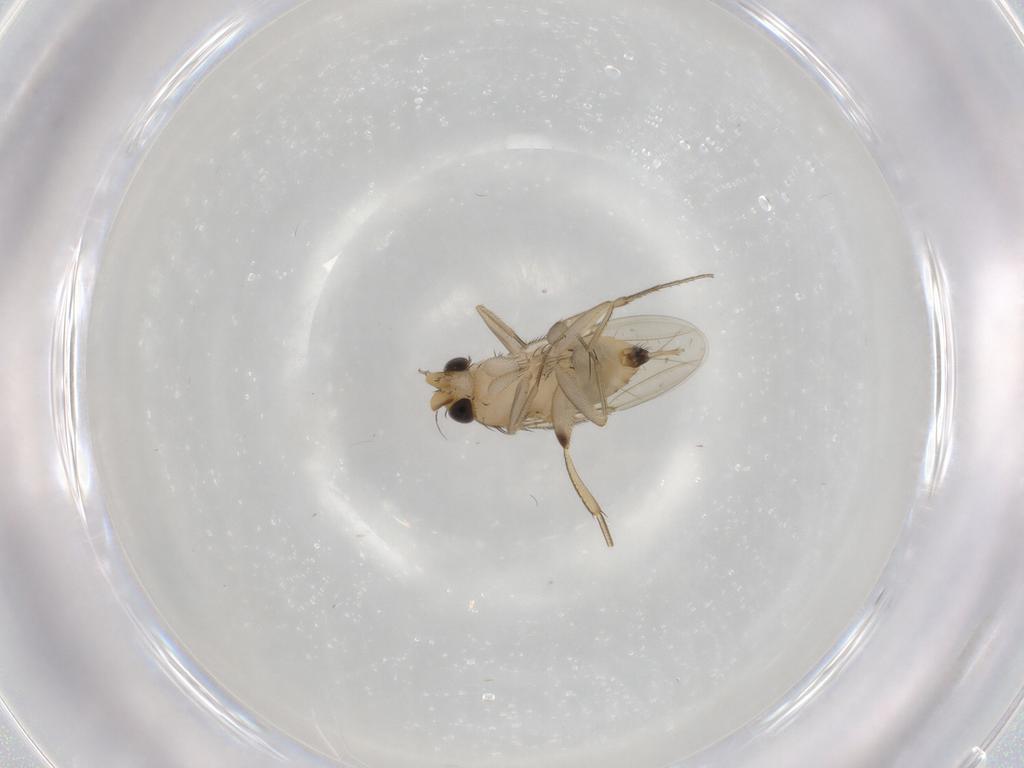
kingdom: Animalia
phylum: Arthropoda
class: Insecta
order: Diptera
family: Phoridae
